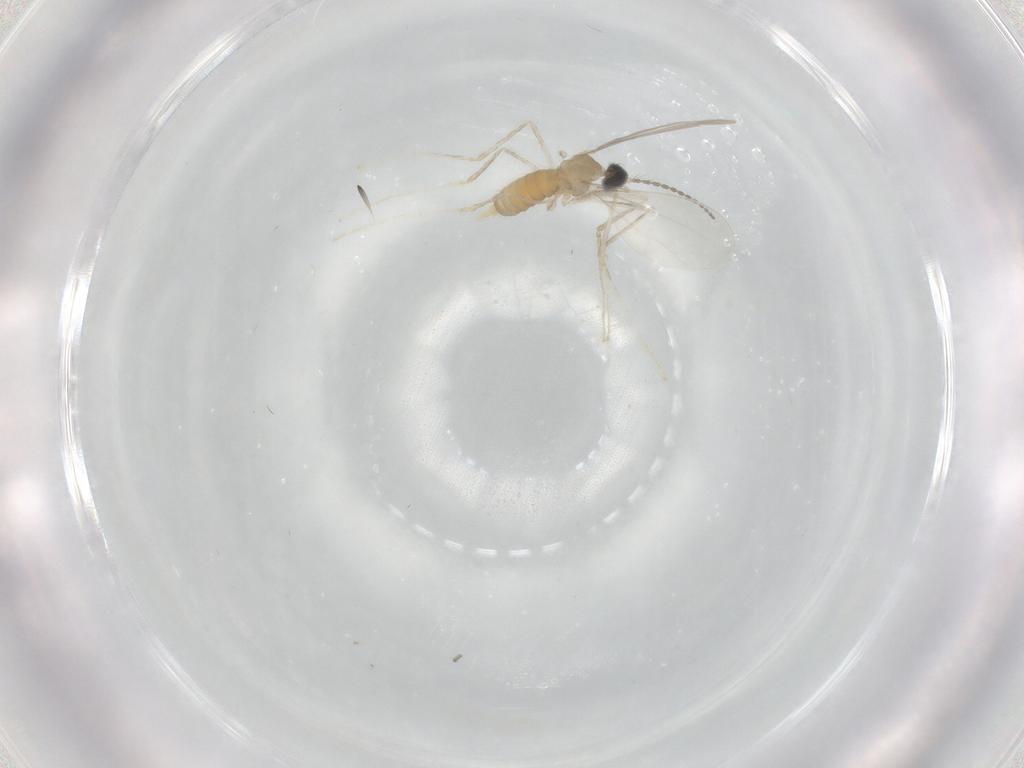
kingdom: Animalia
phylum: Arthropoda
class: Insecta
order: Diptera
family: Cecidomyiidae
